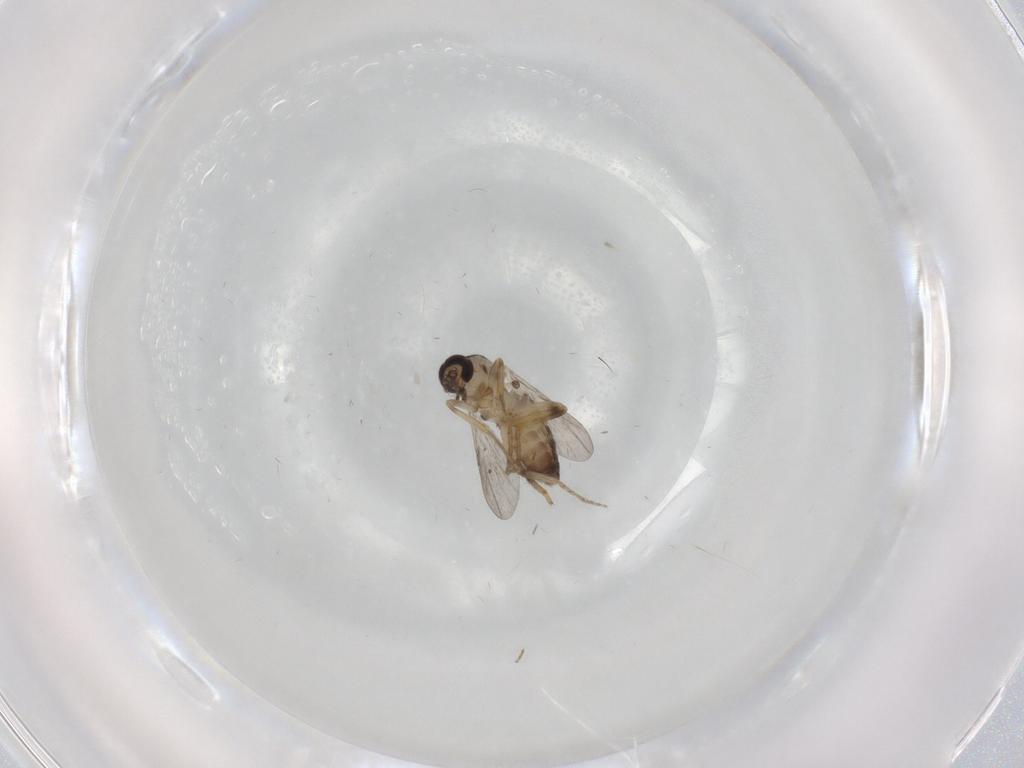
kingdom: Animalia
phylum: Arthropoda
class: Insecta
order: Diptera
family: Ceratopogonidae
